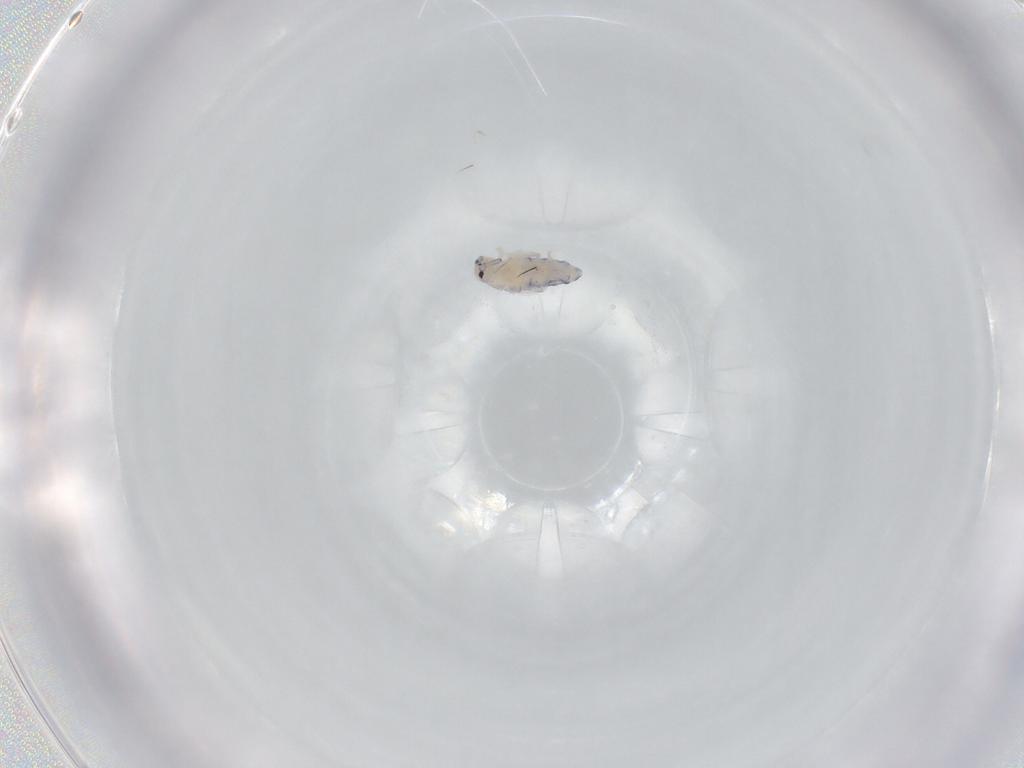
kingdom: Animalia
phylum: Arthropoda
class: Collembola
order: Entomobryomorpha
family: Entomobryidae
